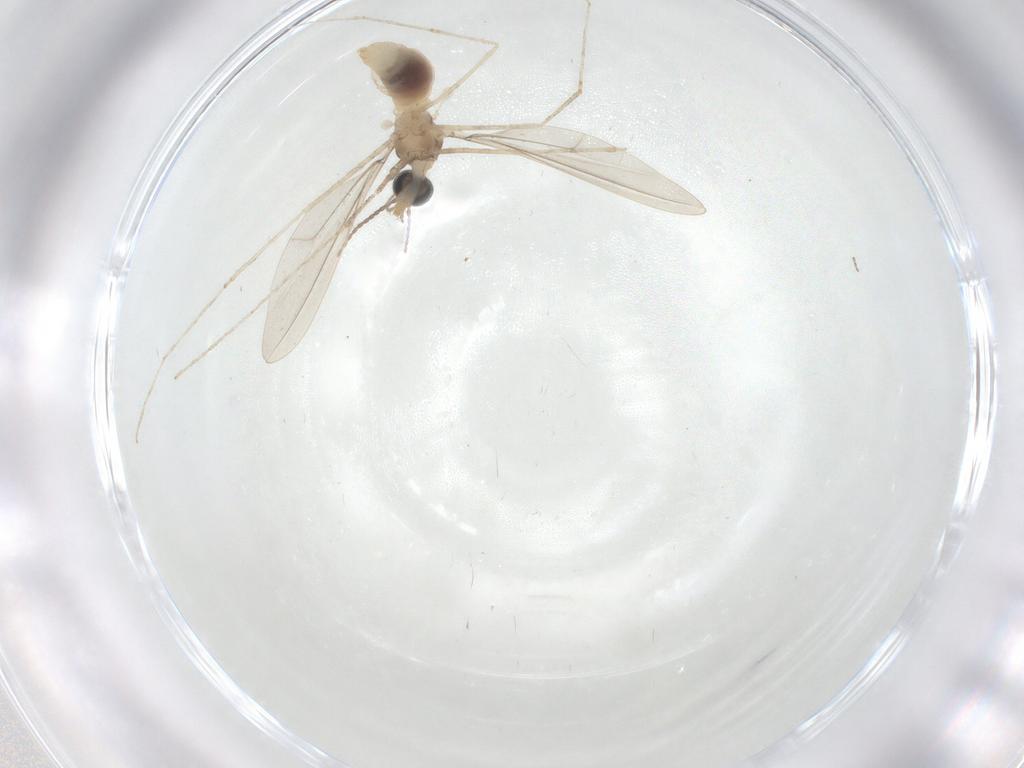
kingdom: Animalia
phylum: Arthropoda
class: Insecta
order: Diptera
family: Cecidomyiidae
